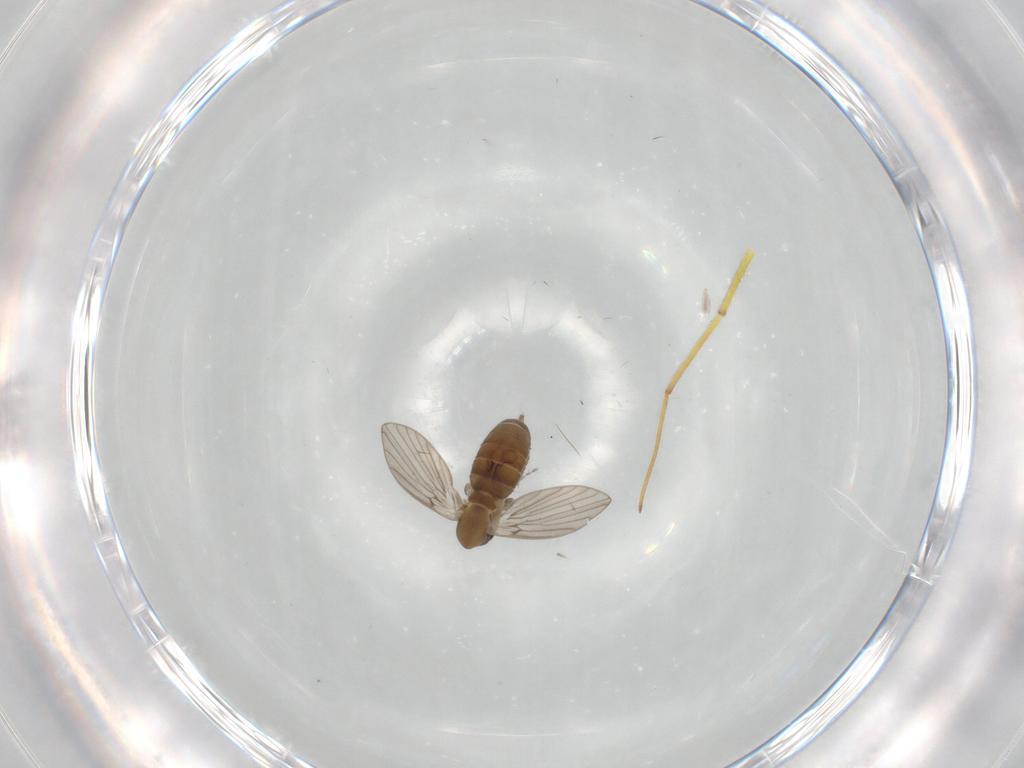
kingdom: Animalia
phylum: Arthropoda
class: Insecta
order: Diptera
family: Psychodidae
